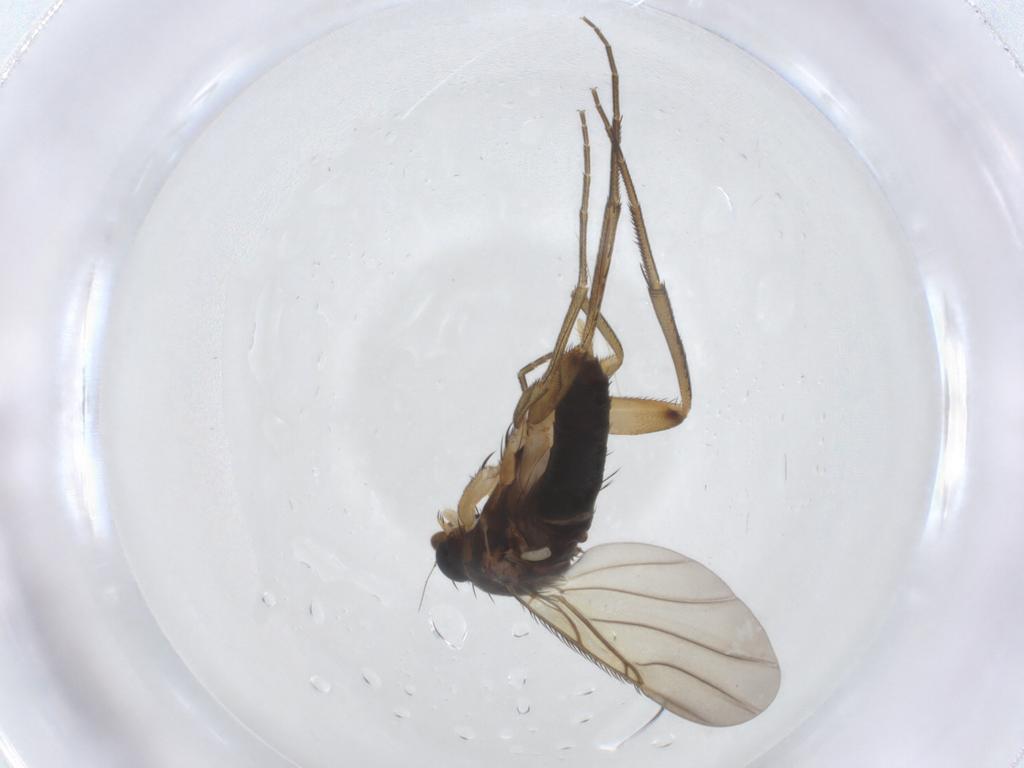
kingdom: Animalia
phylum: Arthropoda
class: Insecta
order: Diptera
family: Phoridae
